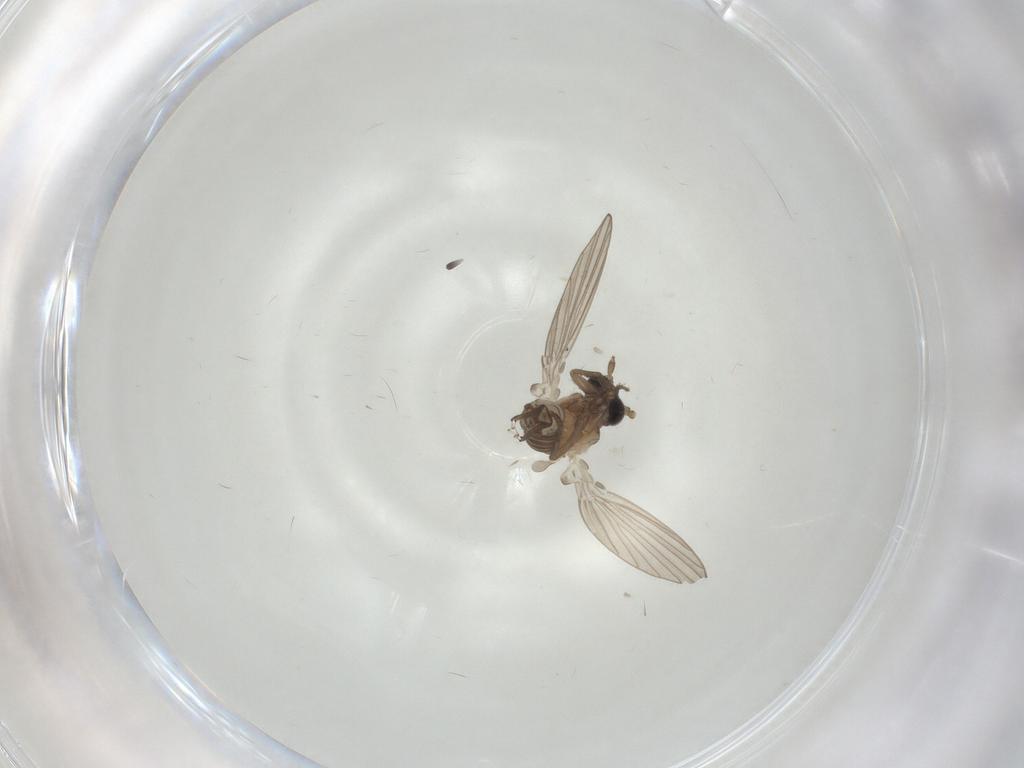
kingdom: Animalia
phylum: Arthropoda
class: Insecta
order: Diptera
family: Psychodidae
